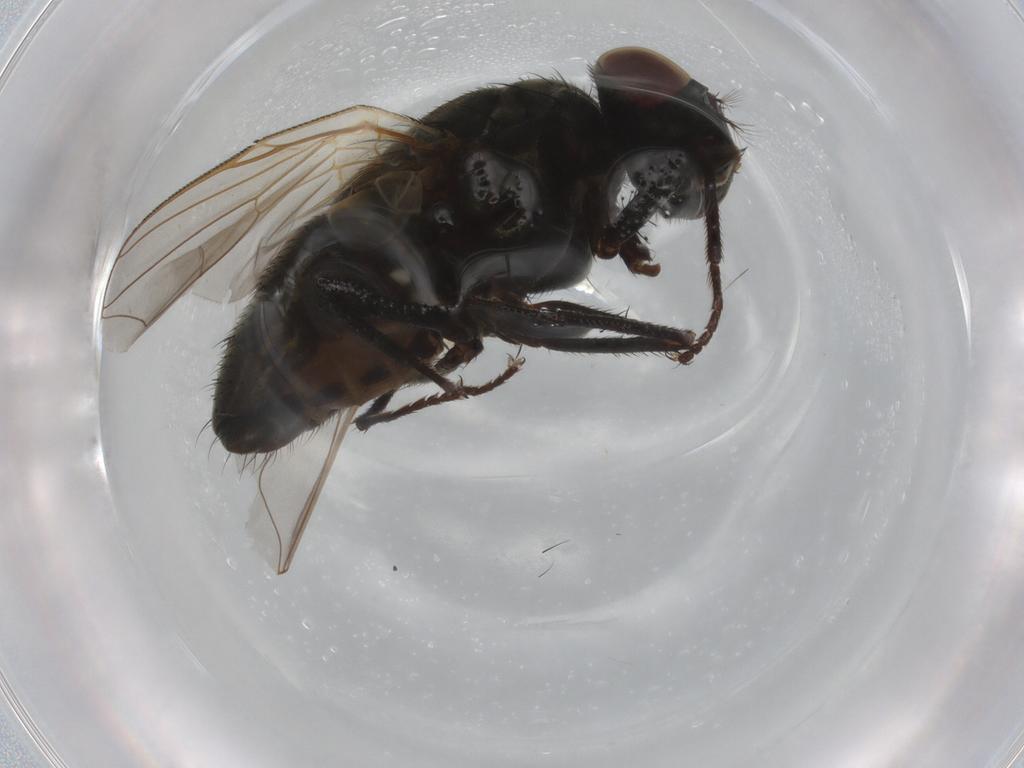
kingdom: Animalia
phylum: Arthropoda
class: Insecta
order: Diptera
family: Muscidae
